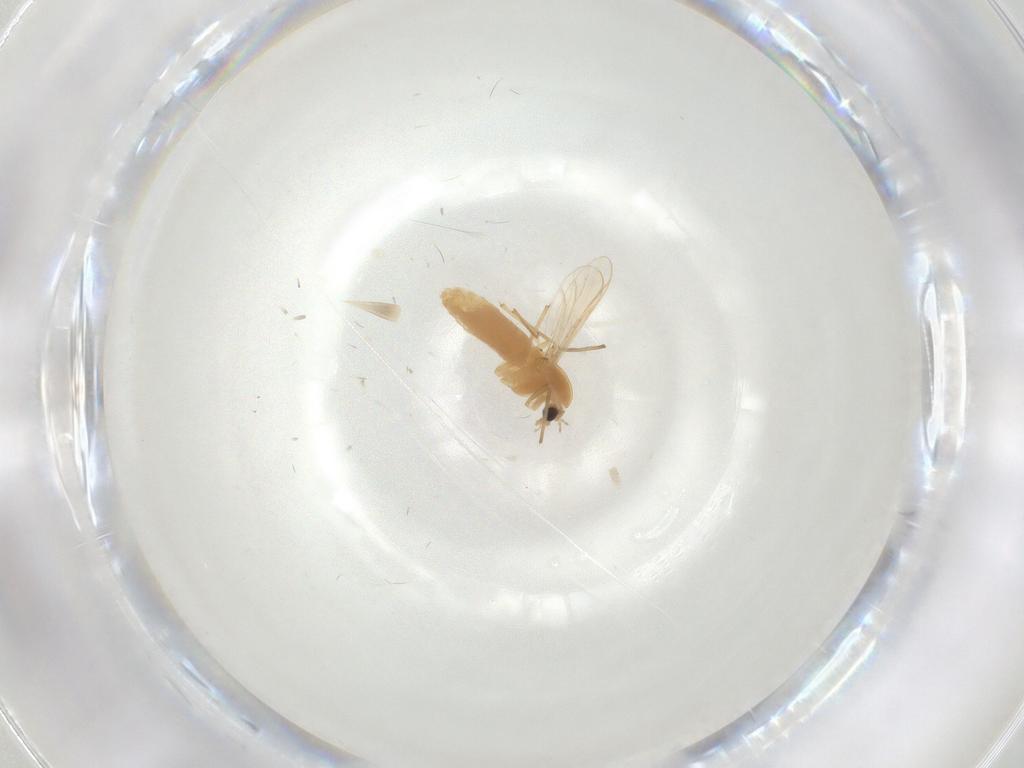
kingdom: Animalia
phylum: Arthropoda
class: Insecta
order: Diptera
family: Chironomidae
